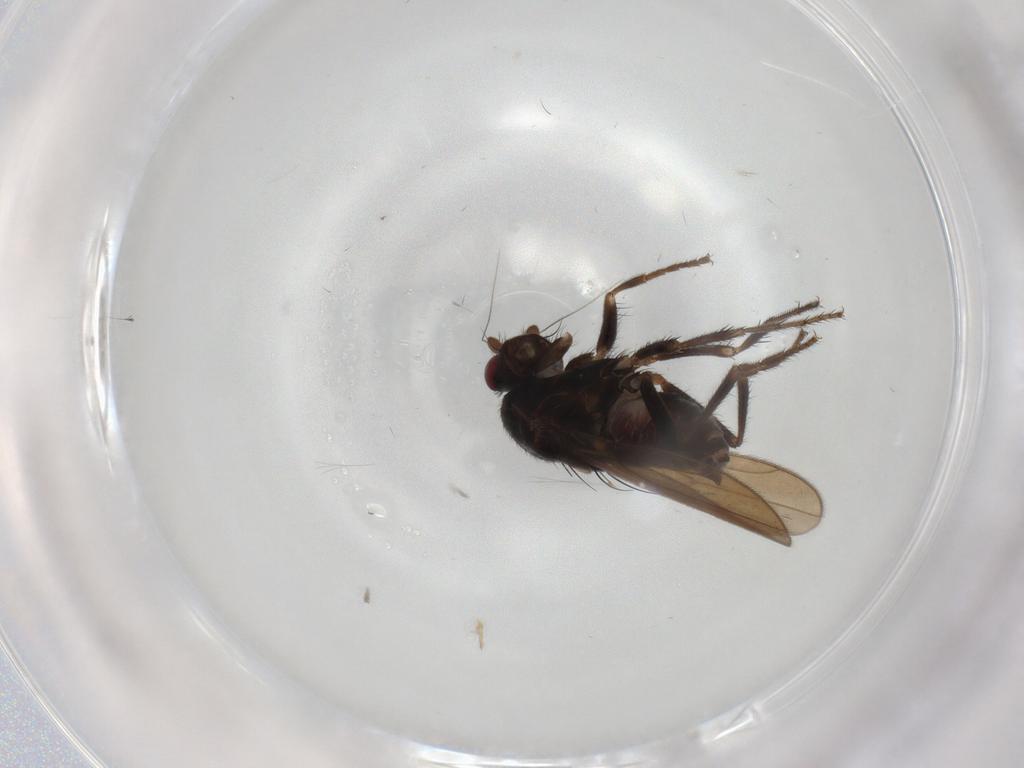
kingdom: Animalia
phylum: Arthropoda
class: Insecta
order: Diptera
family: Sphaeroceridae
